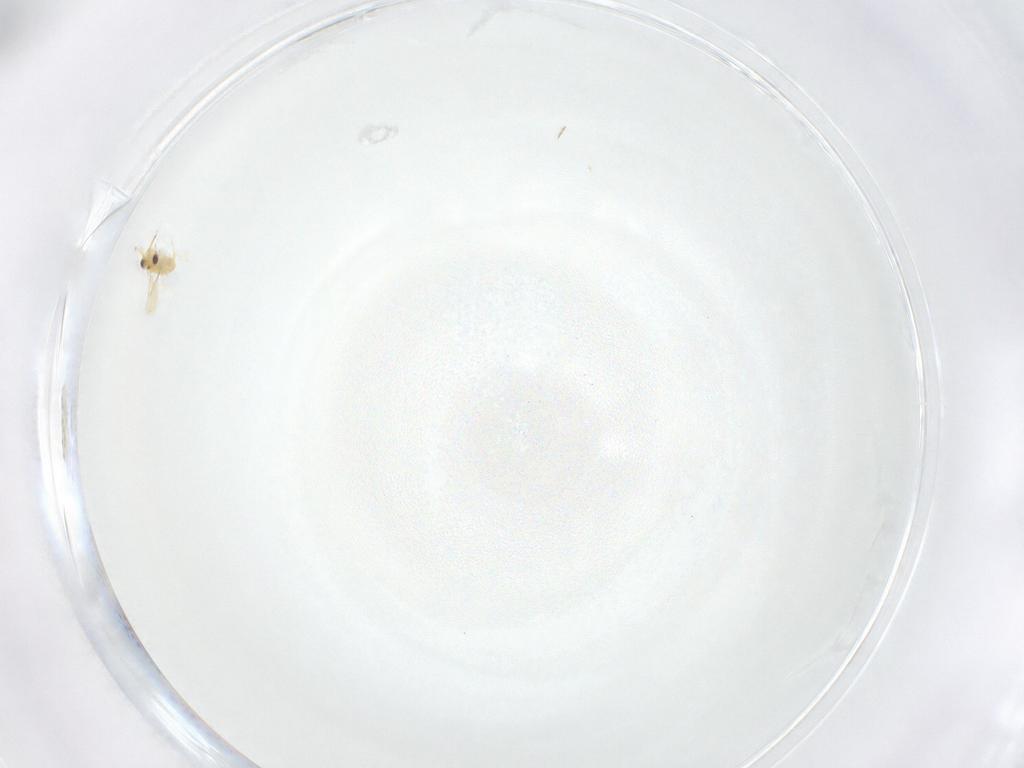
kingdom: Animalia
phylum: Arthropoda
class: Insecta
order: Hymenoptera
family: Aphelinidae
